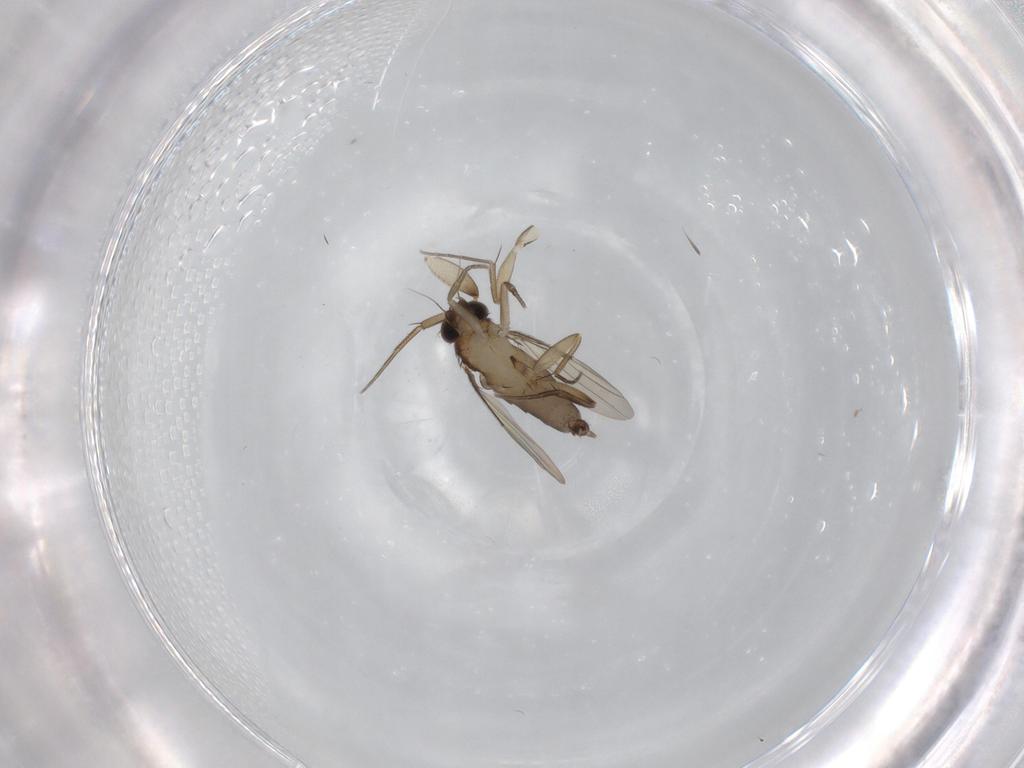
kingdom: Animalia
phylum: Arthropoda
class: Insecta
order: Diptera
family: Phoridae
